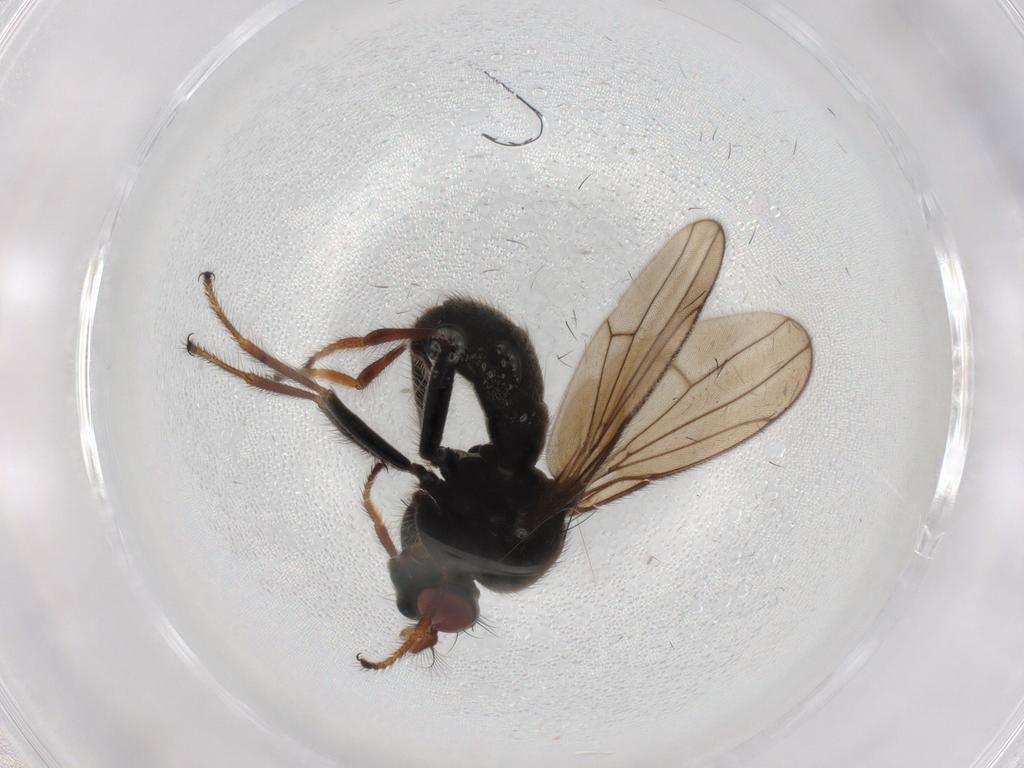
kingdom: Animalia
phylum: Arthropoda
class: Insecta
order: Diptera
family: Ephydridae
